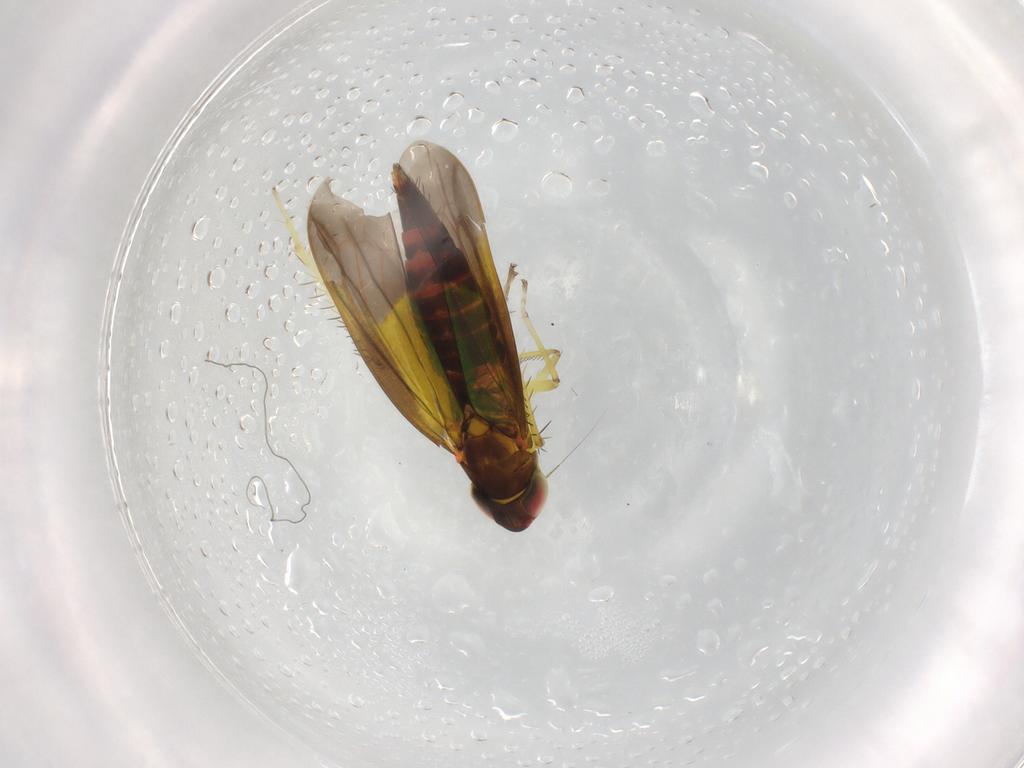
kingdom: Animalia
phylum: Arthropoda
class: Insecta
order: Hemiptera
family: Cicadellidae
